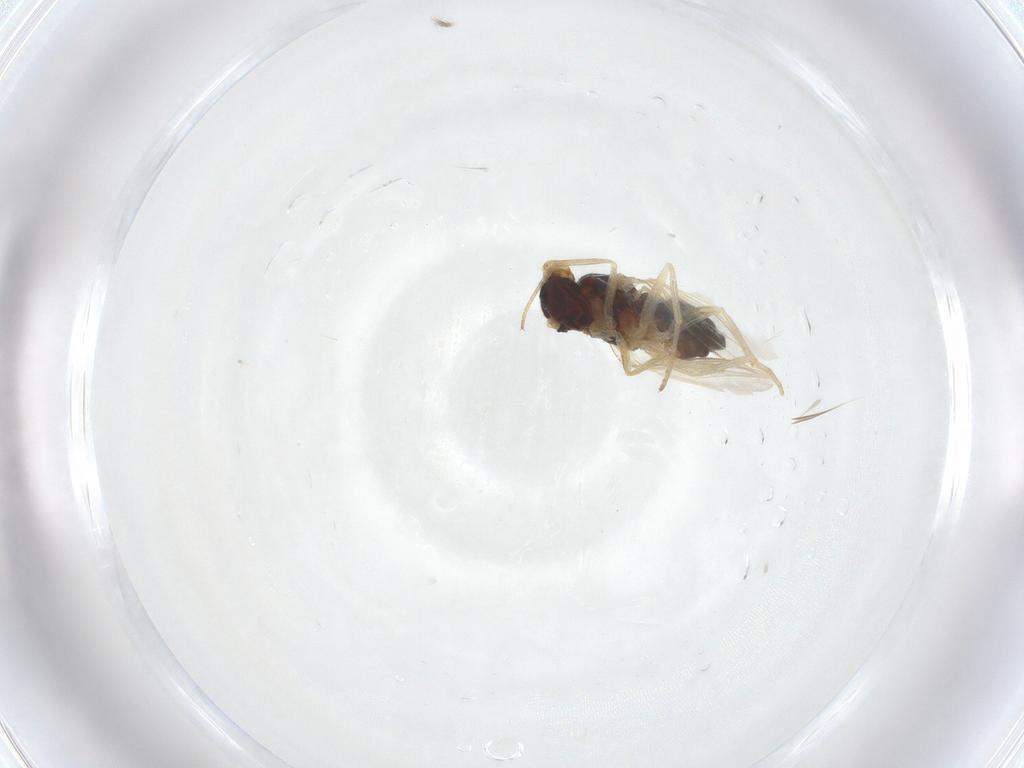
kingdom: Animalia
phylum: Arthropoda
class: Insecta
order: Diptera
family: Dolichopodidae
